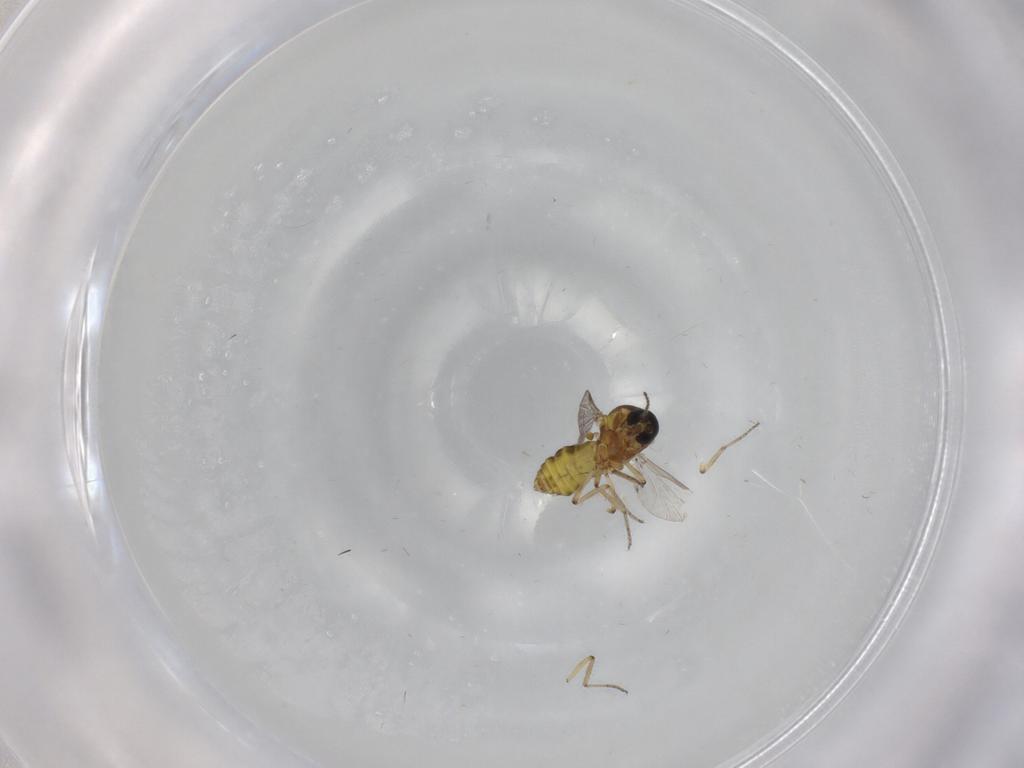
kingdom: Animalia
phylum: Arthropoda
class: Insecta
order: Diptera
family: Ceratopogonidae
